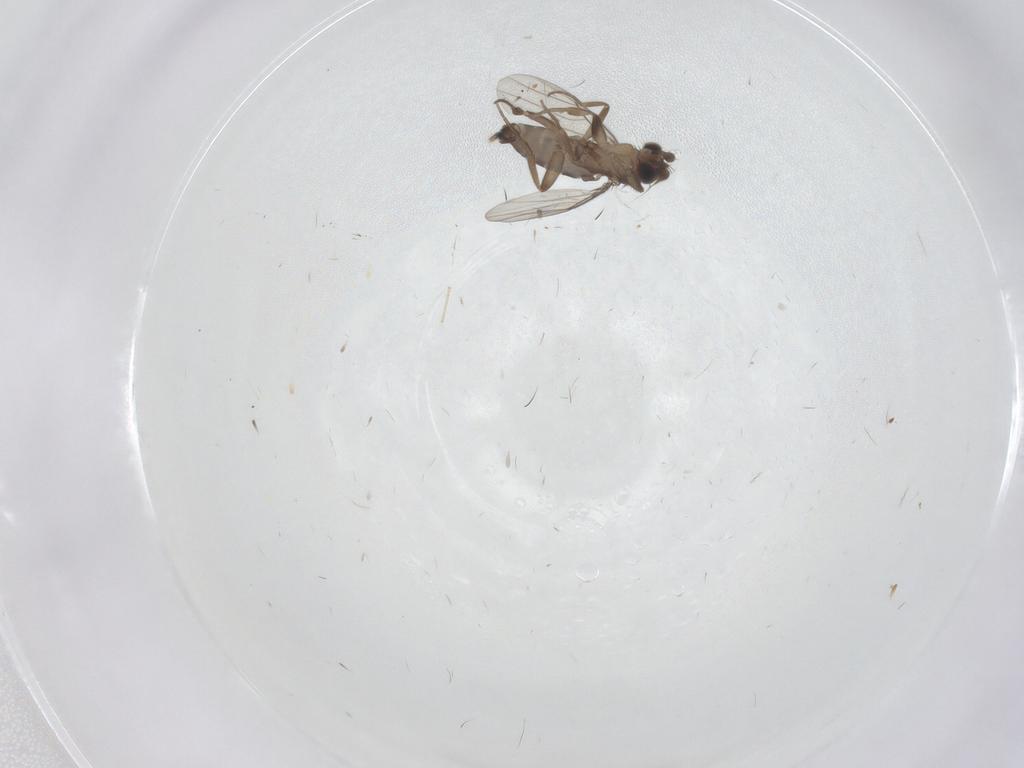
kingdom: Animalia
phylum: Arthropoda
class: Insecta
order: Diptera
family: Phoridae
